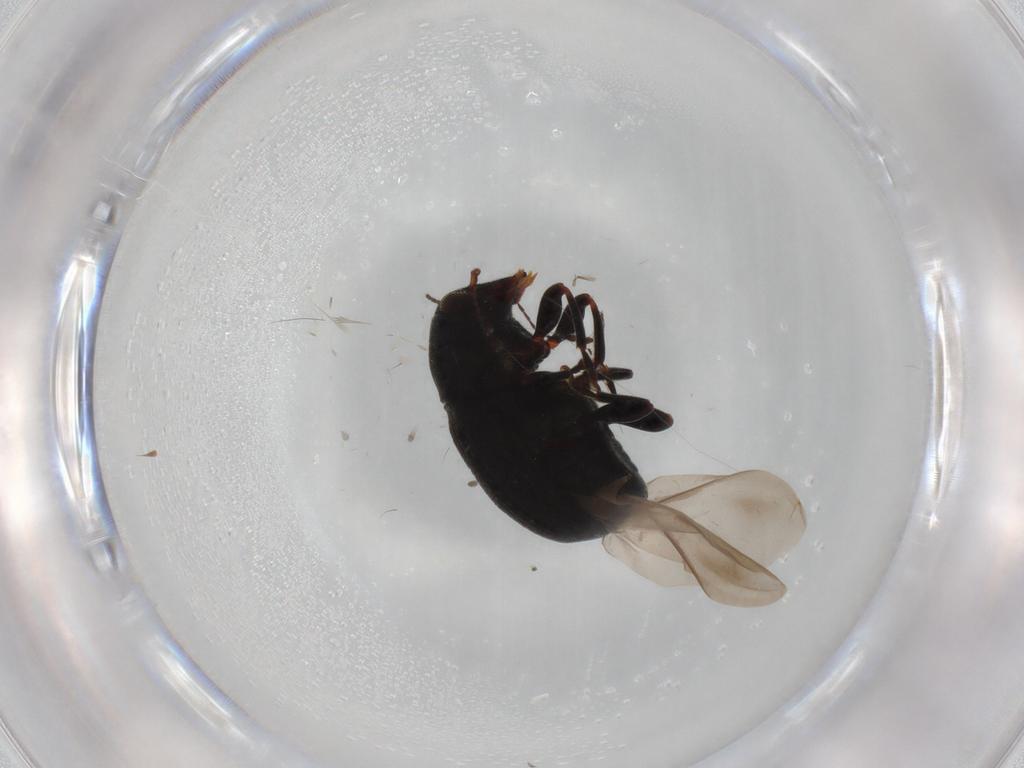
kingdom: Animalia
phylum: Arthropoda
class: Insecta
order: Coleoptera
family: Anthribidae
